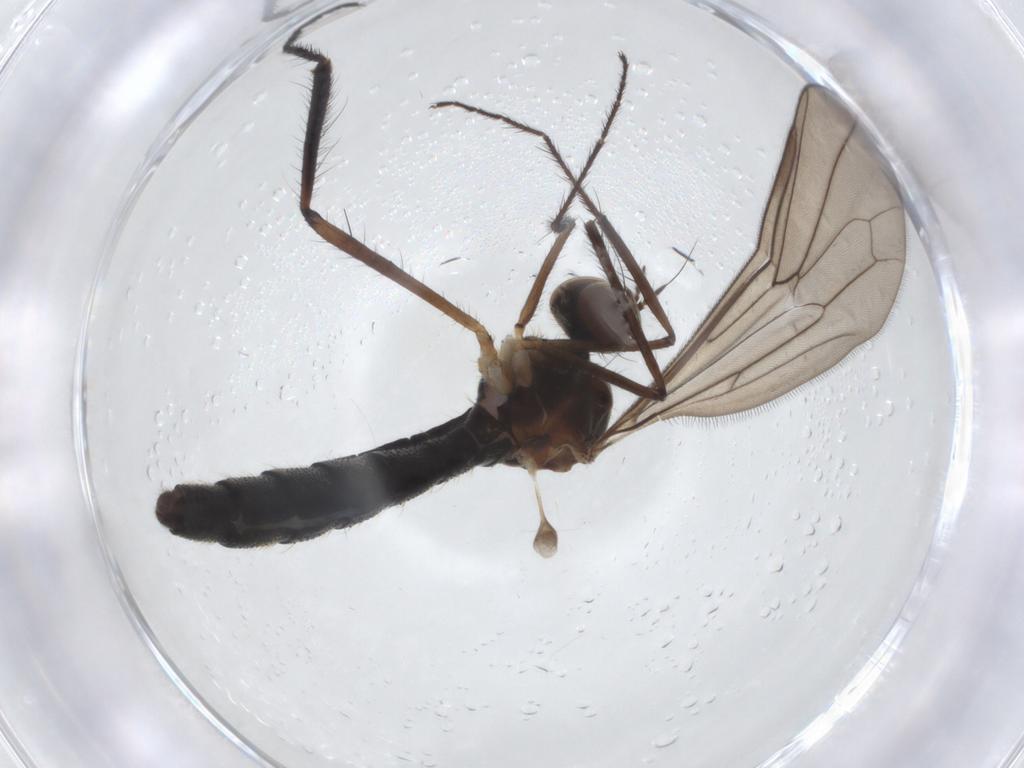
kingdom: Animalia
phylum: Arthropoda
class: Insecta
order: Diptera
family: Hybotidae
